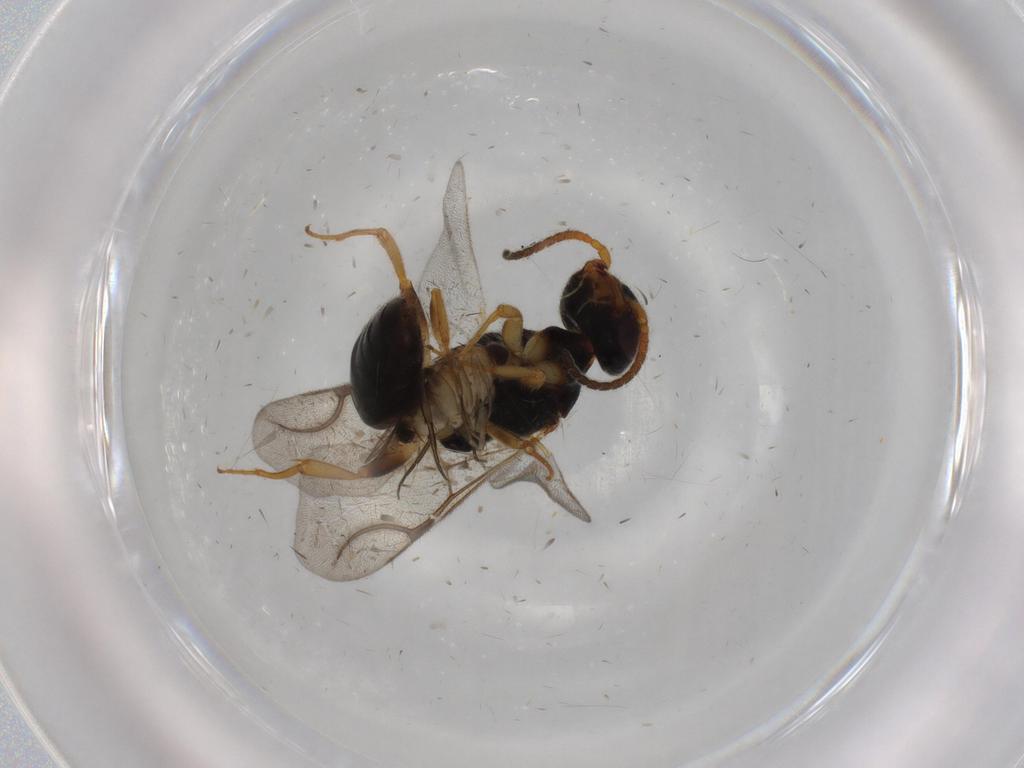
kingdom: Animalia
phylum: Arthropoda
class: Insecta
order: Hymenoptera
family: Bethylidae
